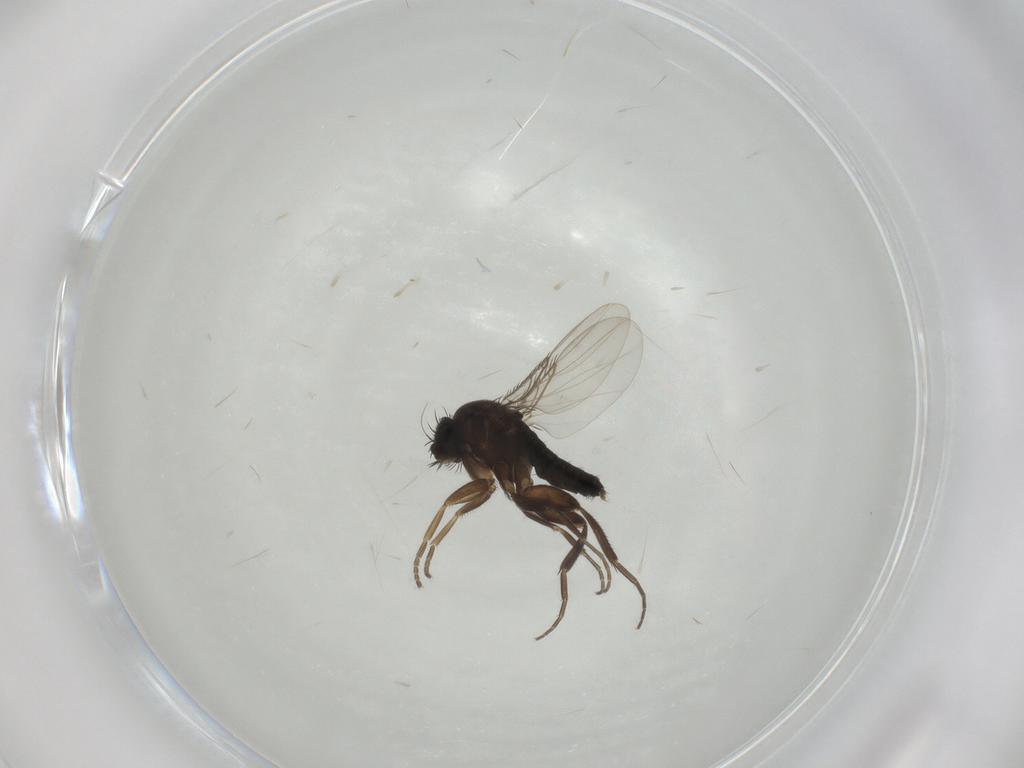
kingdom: Animalia
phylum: Arthropoda
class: Insecta
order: Diptera
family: Phoridae
